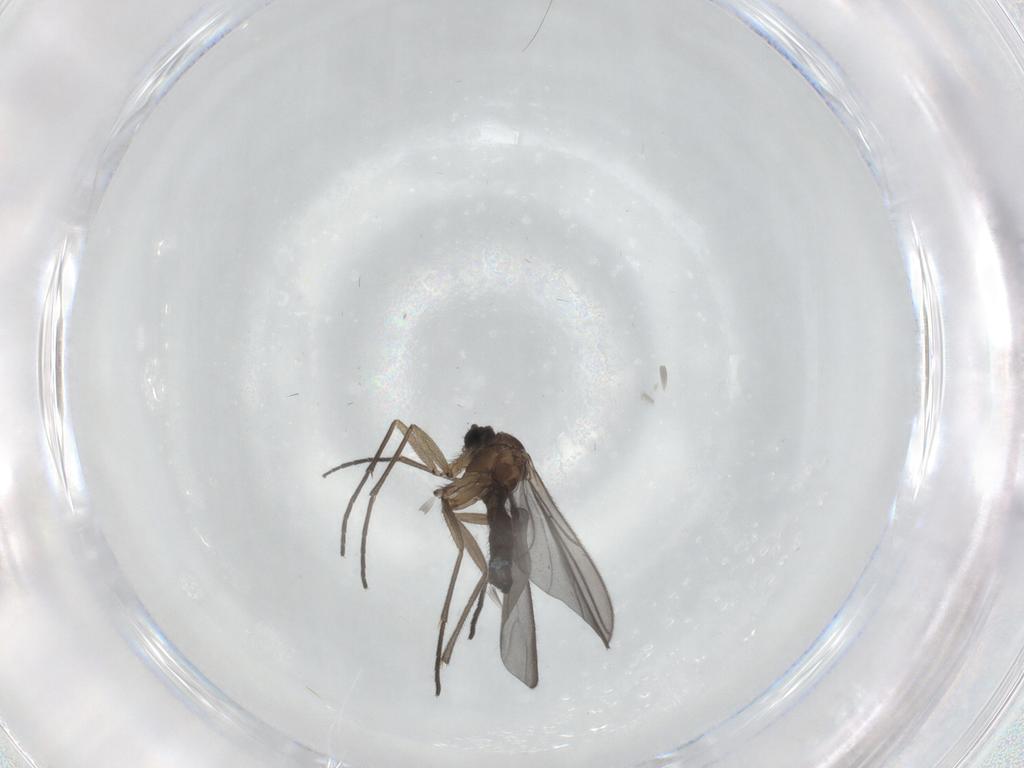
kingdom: Animalia
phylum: Arthropoda
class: Insecta
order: Diptera
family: Sciaridae
